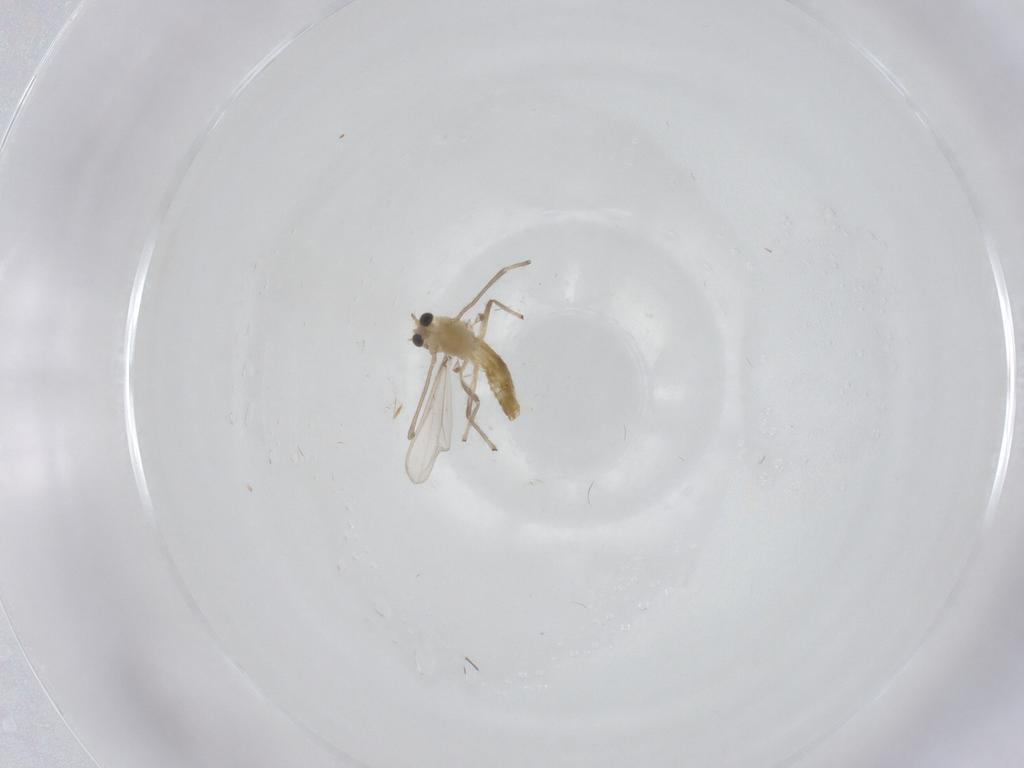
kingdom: Animalia
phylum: Arthropoda
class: Insecta
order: Diptera
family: Chironomidae
